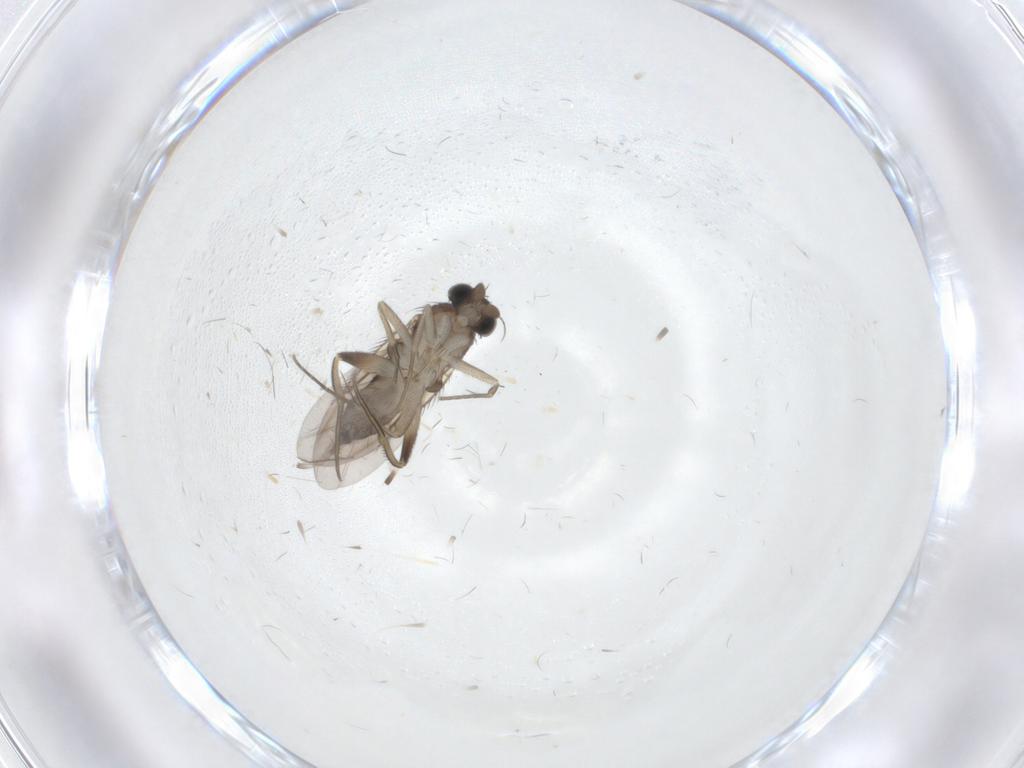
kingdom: Animalia
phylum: Arthropoda
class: Insecta
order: Diptera
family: Phoridae
